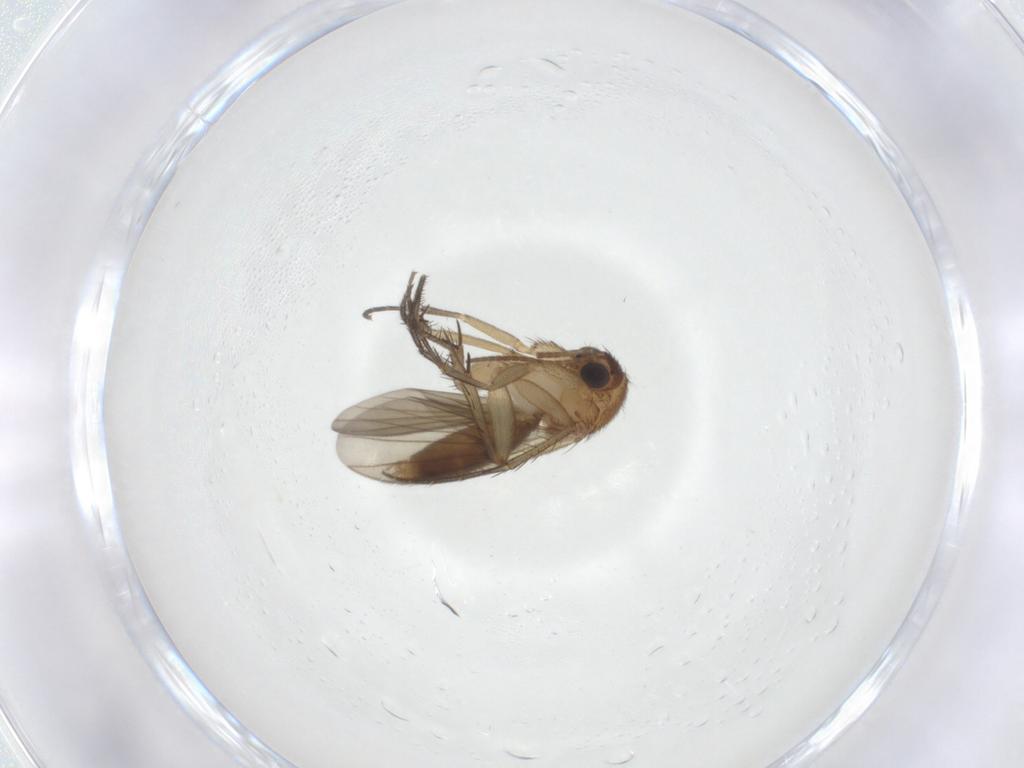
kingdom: Animalia
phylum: Arthropoda
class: Insecta
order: Diptera
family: Mycetophilidae
